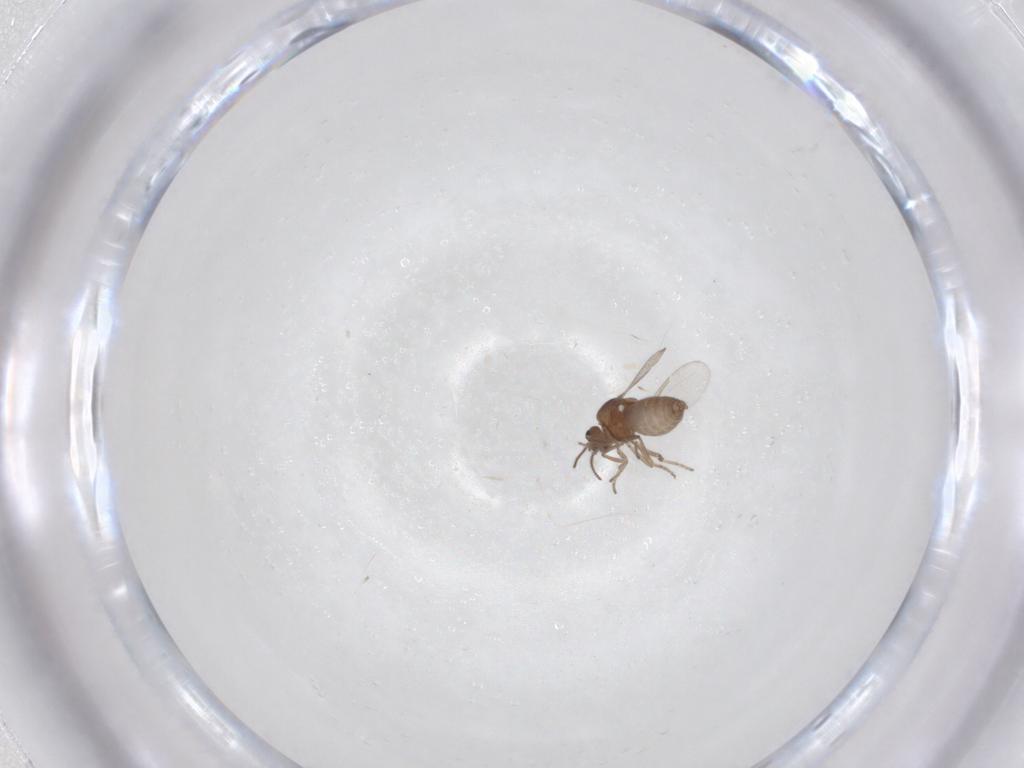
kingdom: Animalia
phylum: Arthropoda
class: Insecta
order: Diptera
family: Ceratopogonidae
